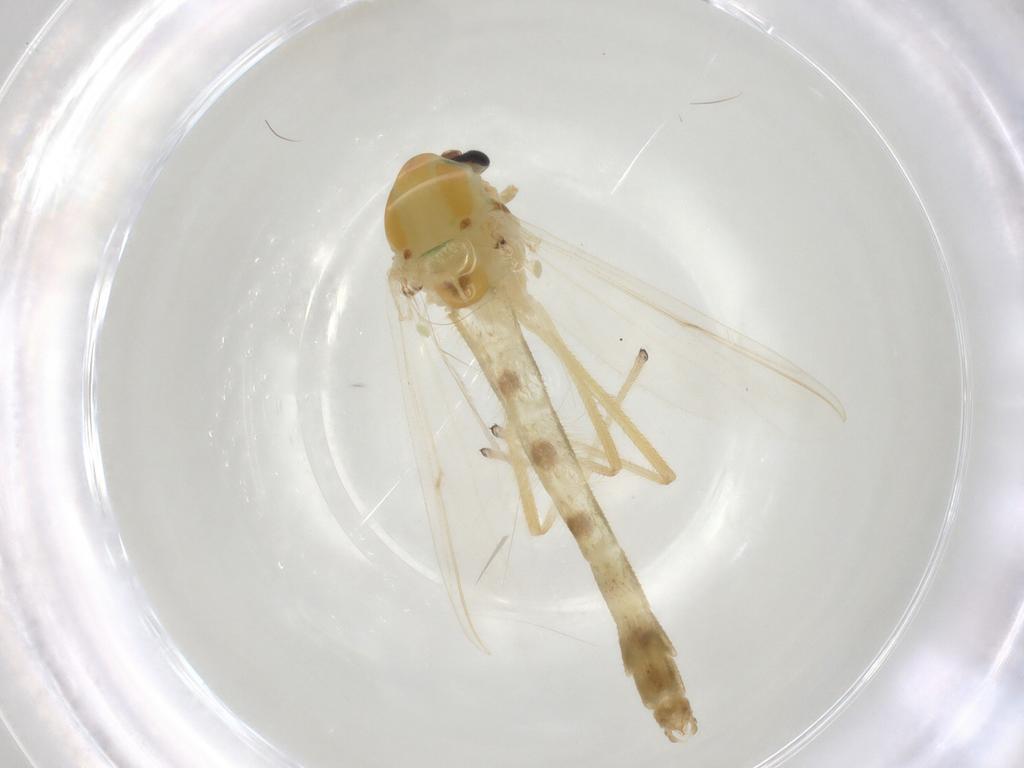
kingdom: Animalia
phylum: Arthropoda
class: Insecta
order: Diptera
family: Chironomidae
